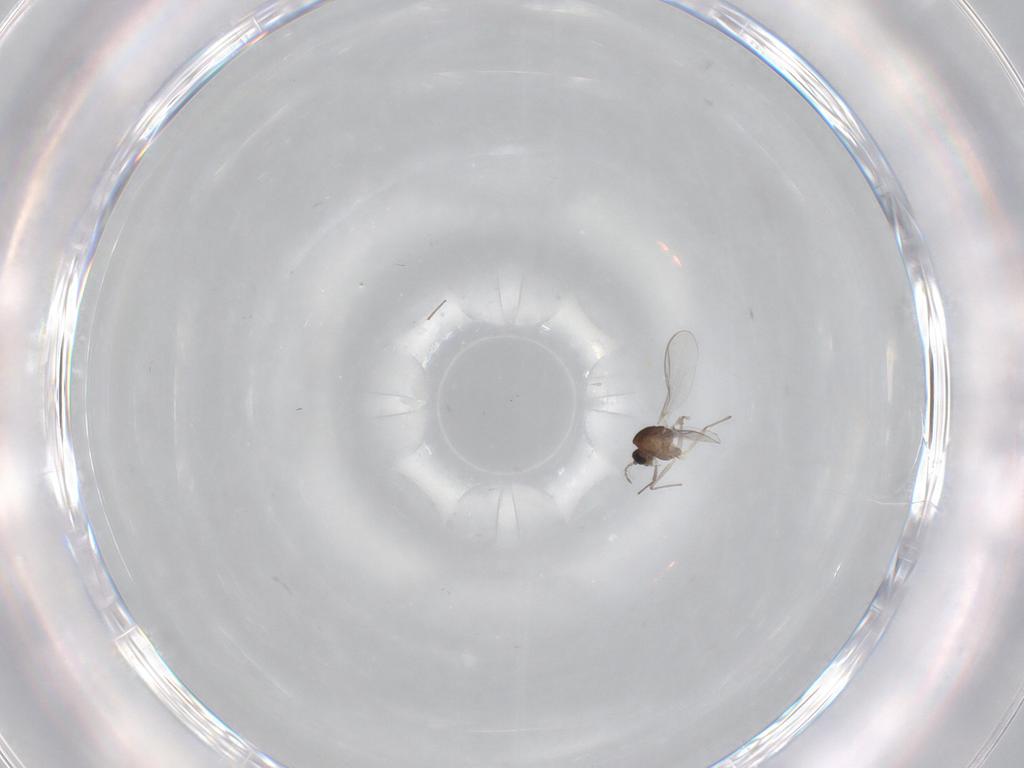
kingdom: Animalia
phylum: Arthropoda
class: Insecta
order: Diptera
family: Chironomidae
